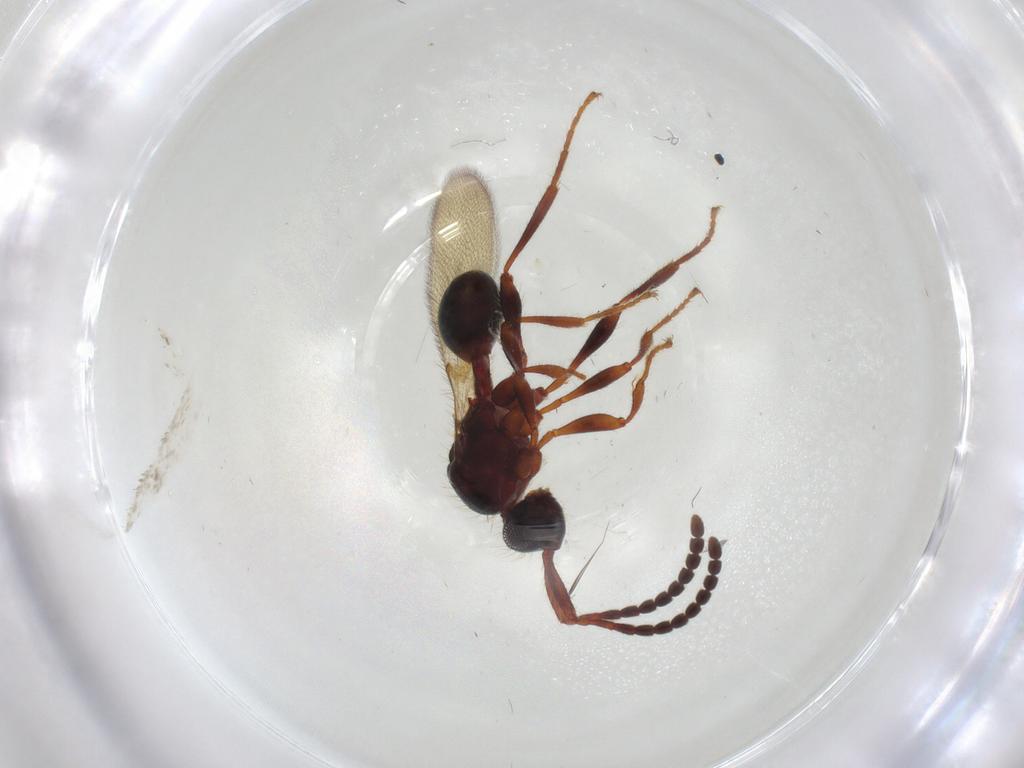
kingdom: Animalia
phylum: Arthropoda
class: Insecta
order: Hymenoptera
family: Diapriidae
